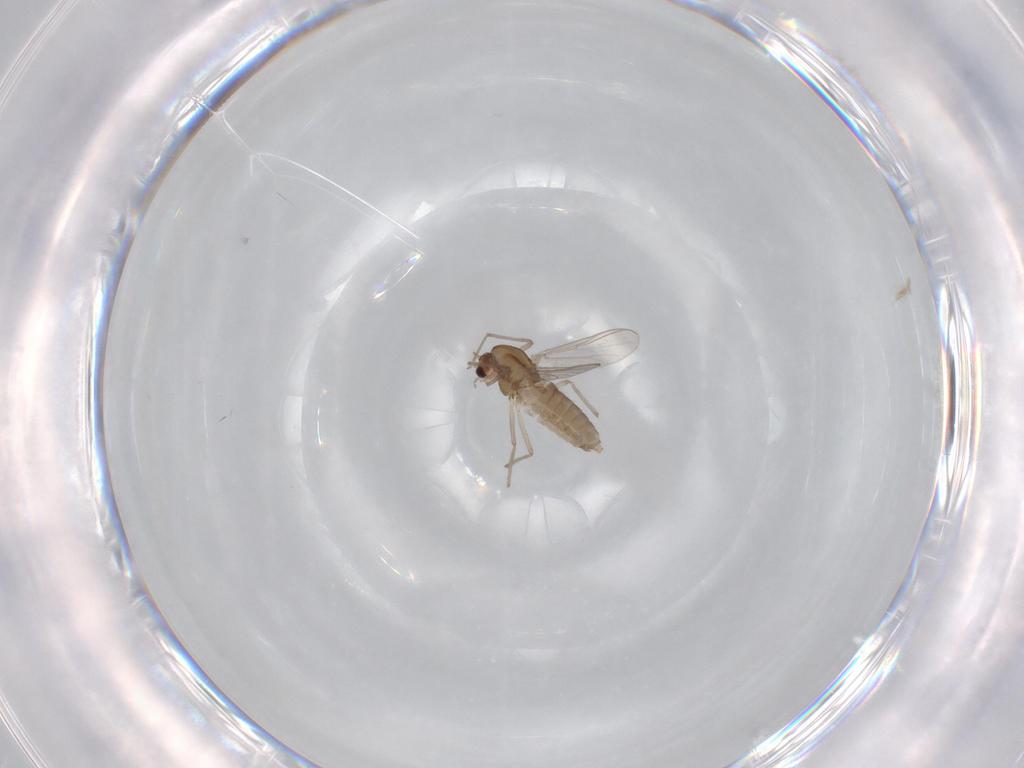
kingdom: Animalia
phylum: Arthropoda
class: Insecta
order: Diptera
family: Chironomidae
